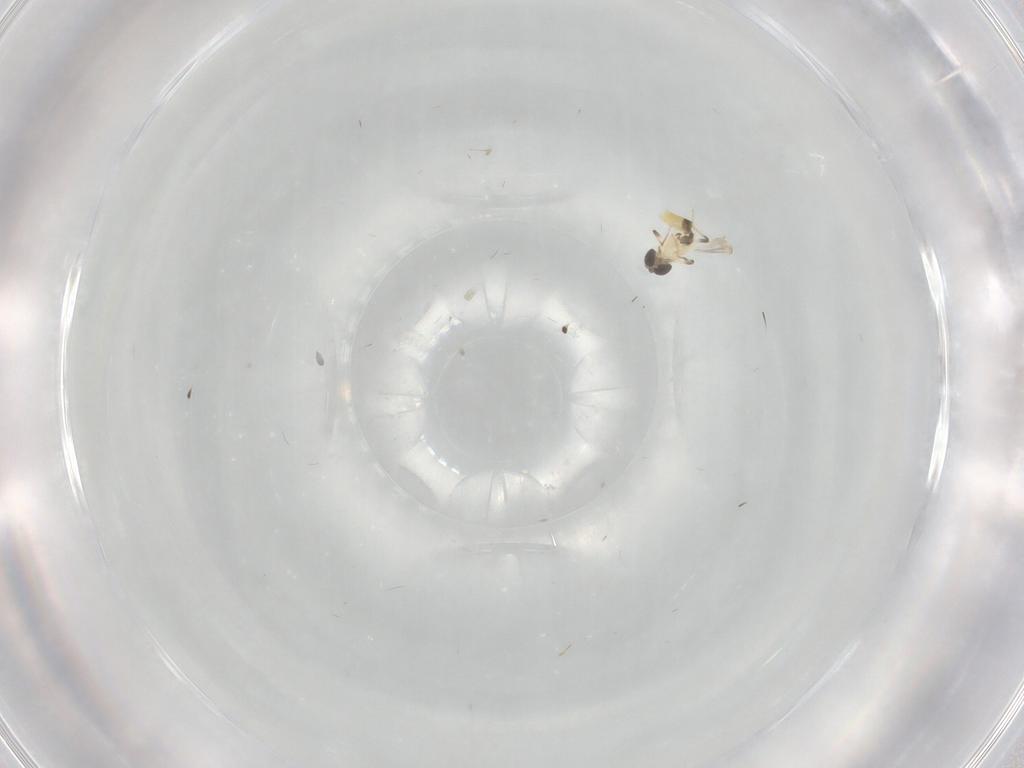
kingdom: Animalia
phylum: Arthropoda
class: Insecta
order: Diptera
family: Chironomidae
